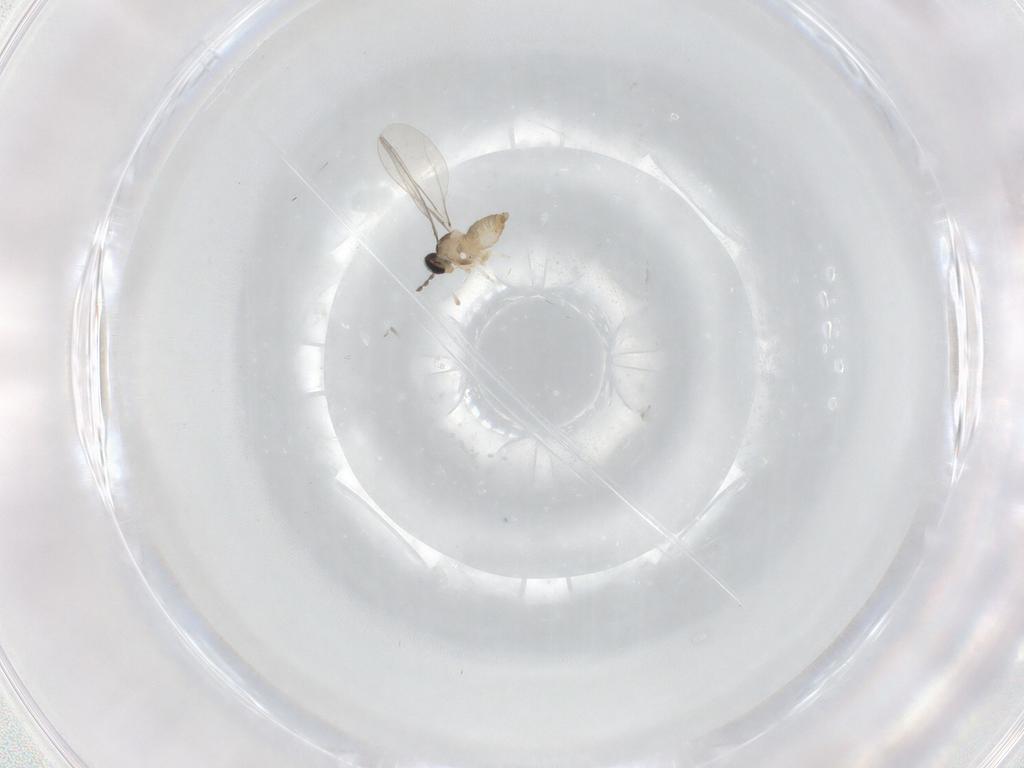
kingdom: Animalia
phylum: Arthropoda
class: Insecta
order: Diptera
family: Cecidomyiidae
